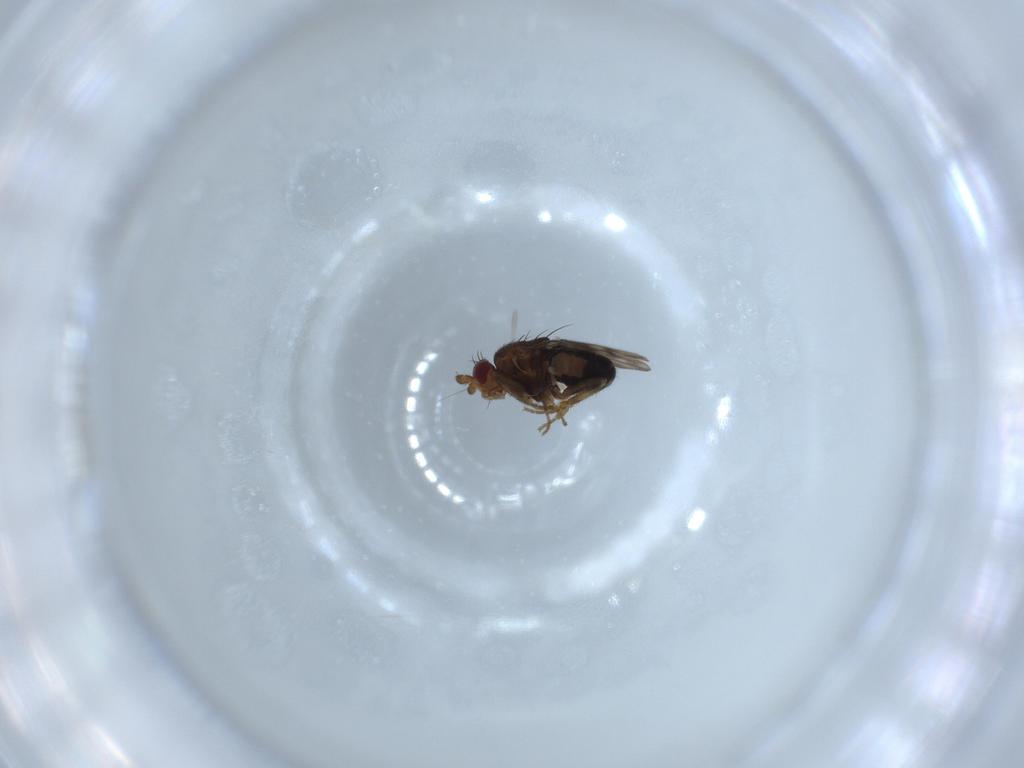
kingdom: Animalia
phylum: Arthropoda
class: Insecta
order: Diptera
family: Sphaeroceridae
